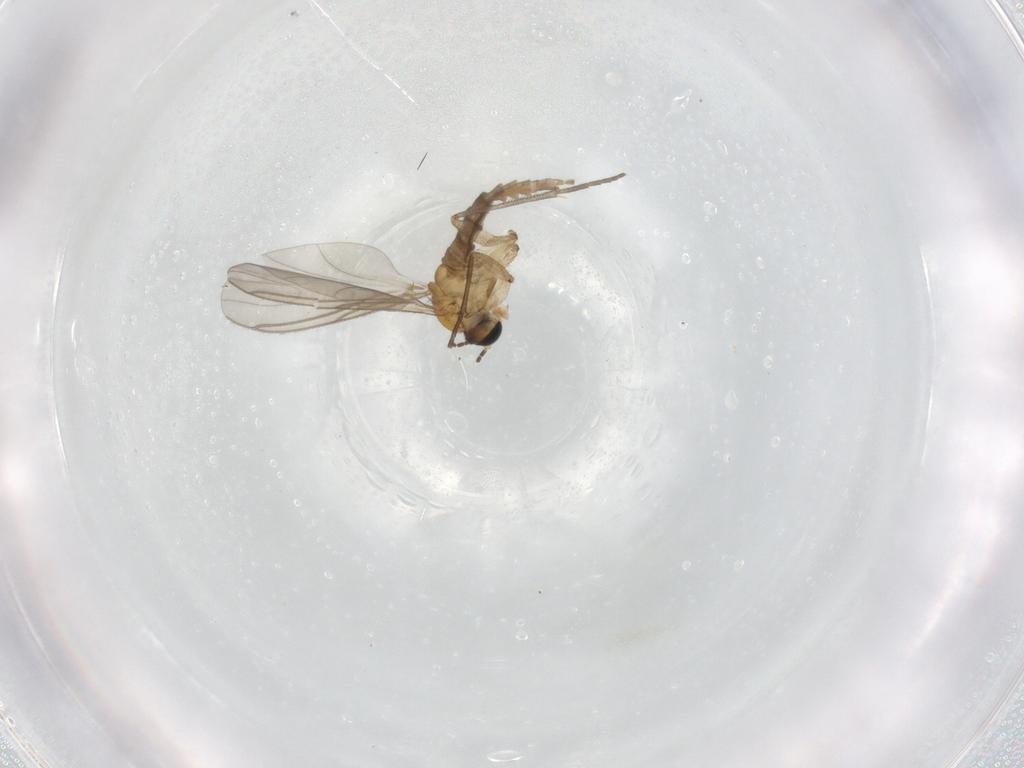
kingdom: Animalia
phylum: Arthropoda
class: Insecta
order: Diptera
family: Sciaridae
